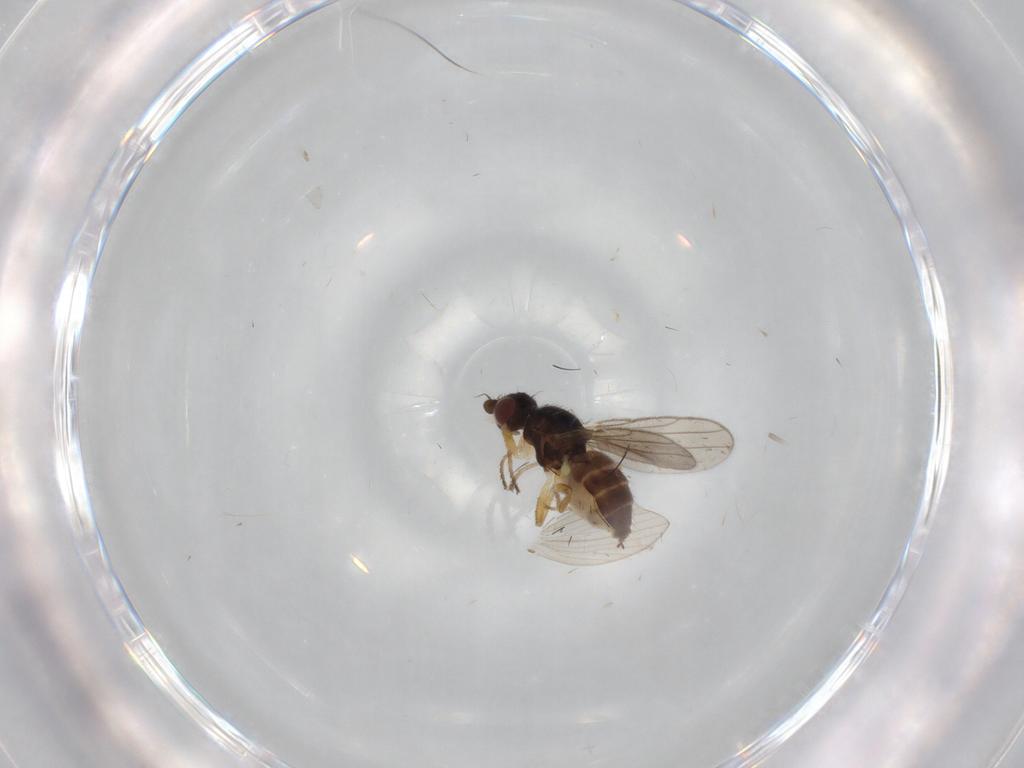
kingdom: Animalia
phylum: Arthropoda
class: Insecta
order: Diptera
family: Chloropidae
